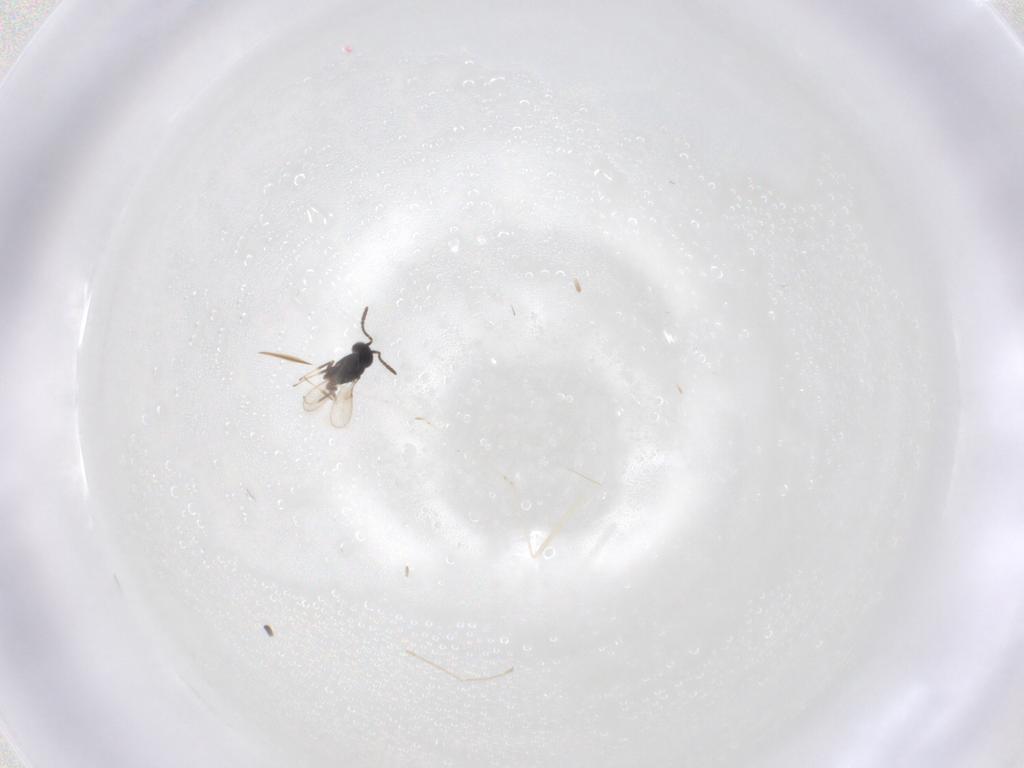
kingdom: Animalia
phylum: Arthropoda
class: Insecta
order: Hymenoptera
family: Scelionidae
